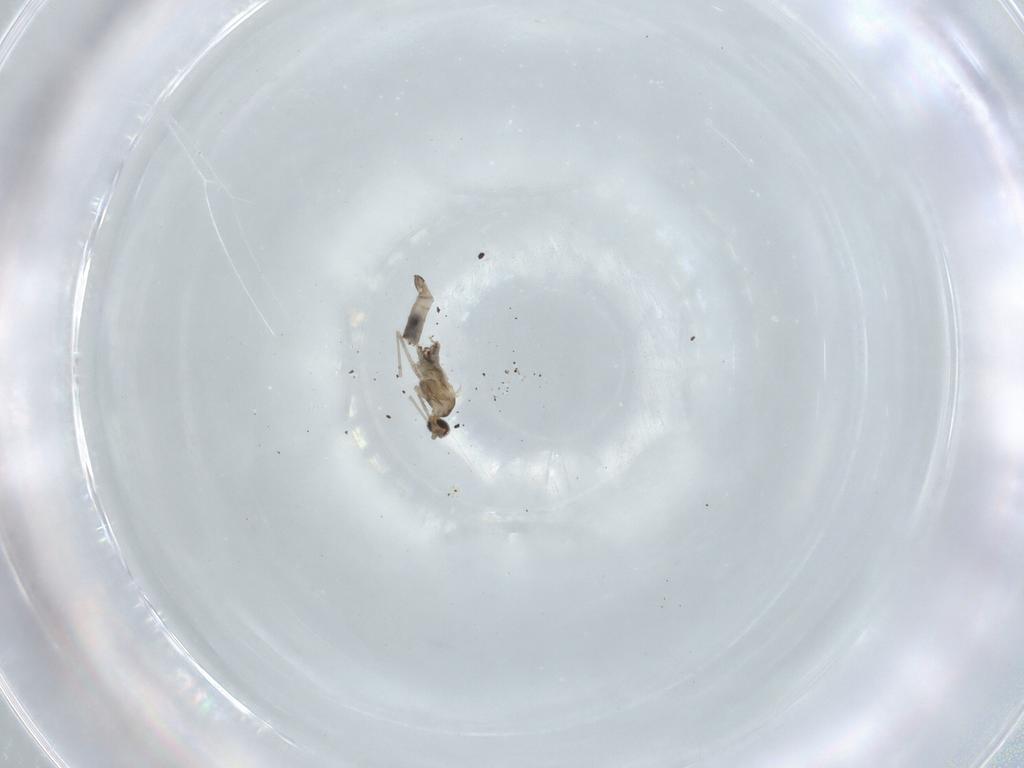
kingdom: Animalia
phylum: Arthropoda
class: Insecta
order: Diptera
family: Cecidomyiidae
